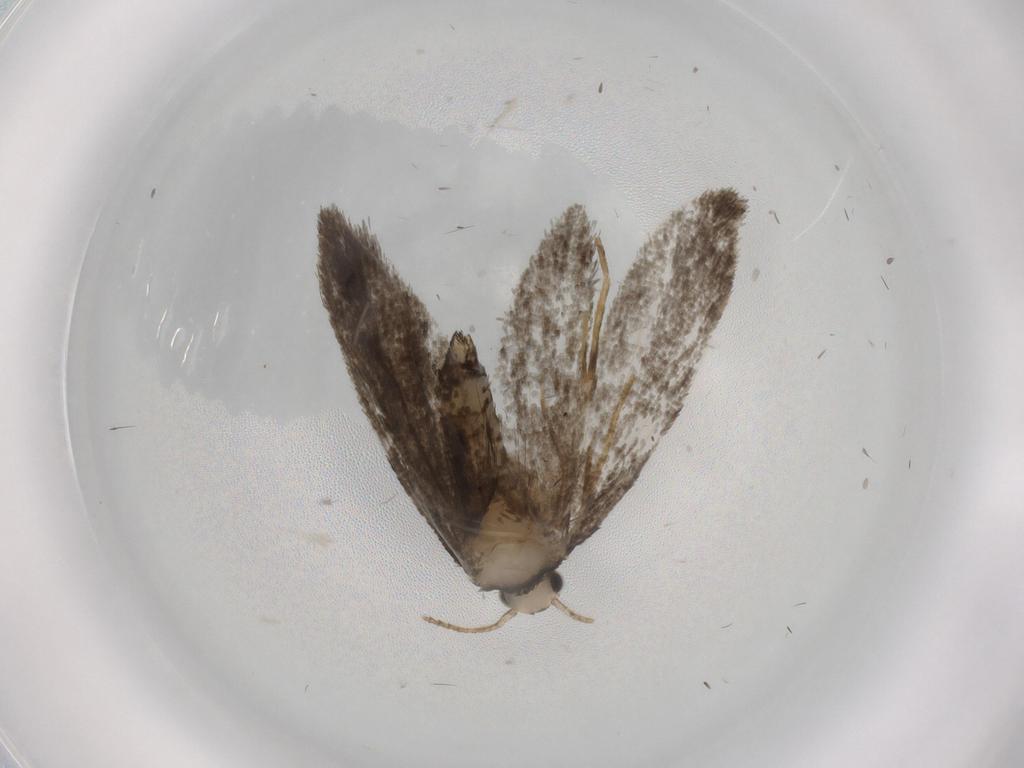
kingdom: Animalia
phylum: Arthropoda
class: Insecta
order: Lepidoptera
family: Psychidae
